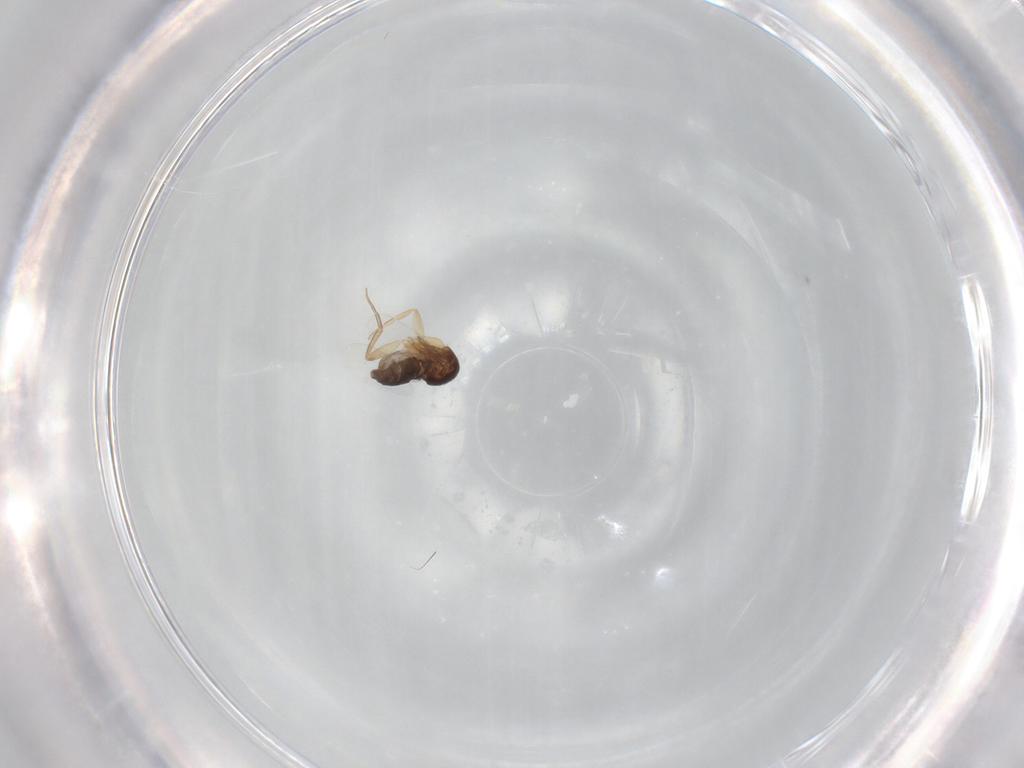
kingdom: Animalia
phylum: Arthropoda
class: Insecta
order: Diptera
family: Phoridae
